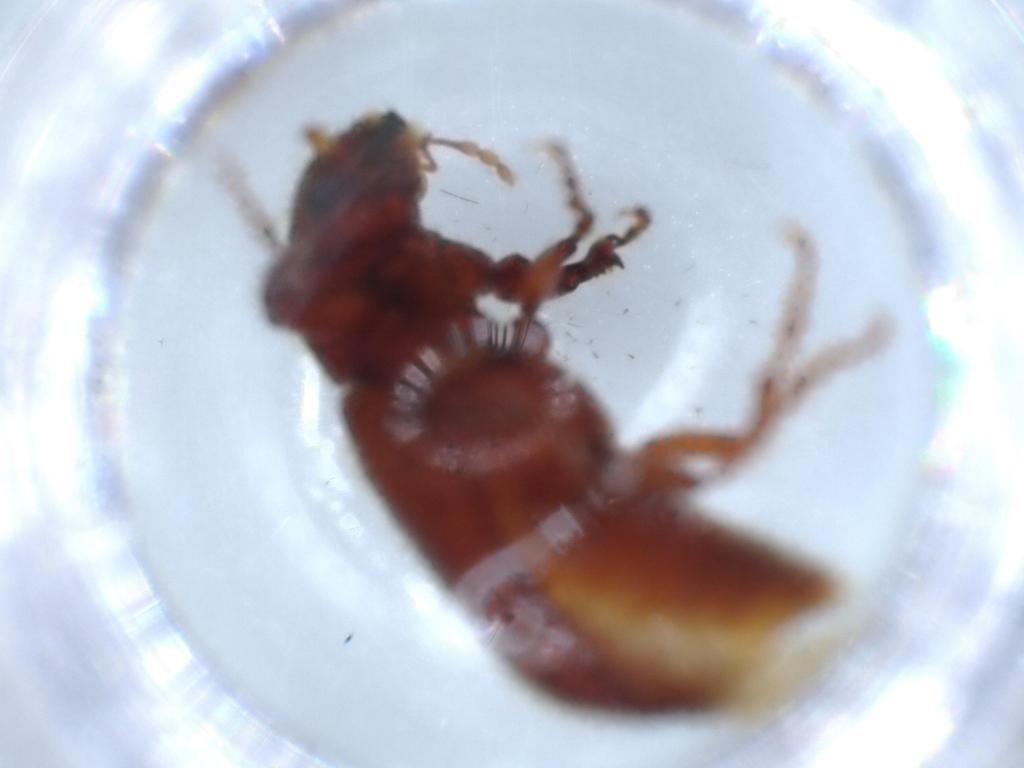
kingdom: Animalia
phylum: Arthropoda
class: Insecta
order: Coleoptera
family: Bostrichidae
